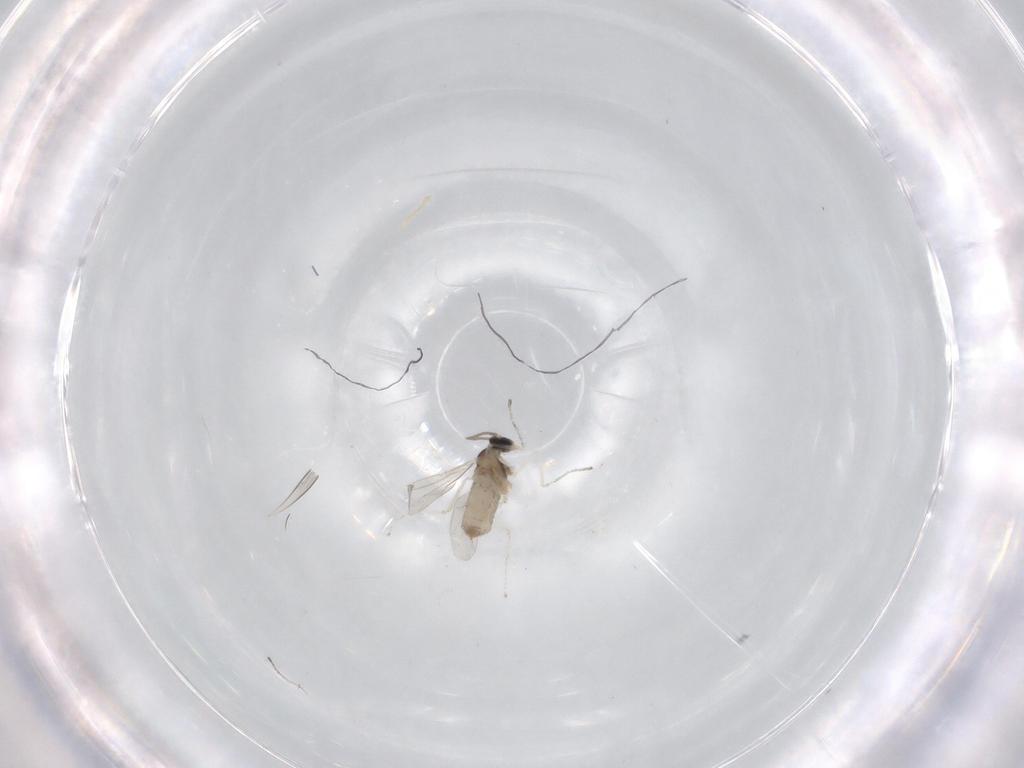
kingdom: Animalia
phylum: Arthropoda
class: Insecta
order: Diptera
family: Cecidomyiidae
